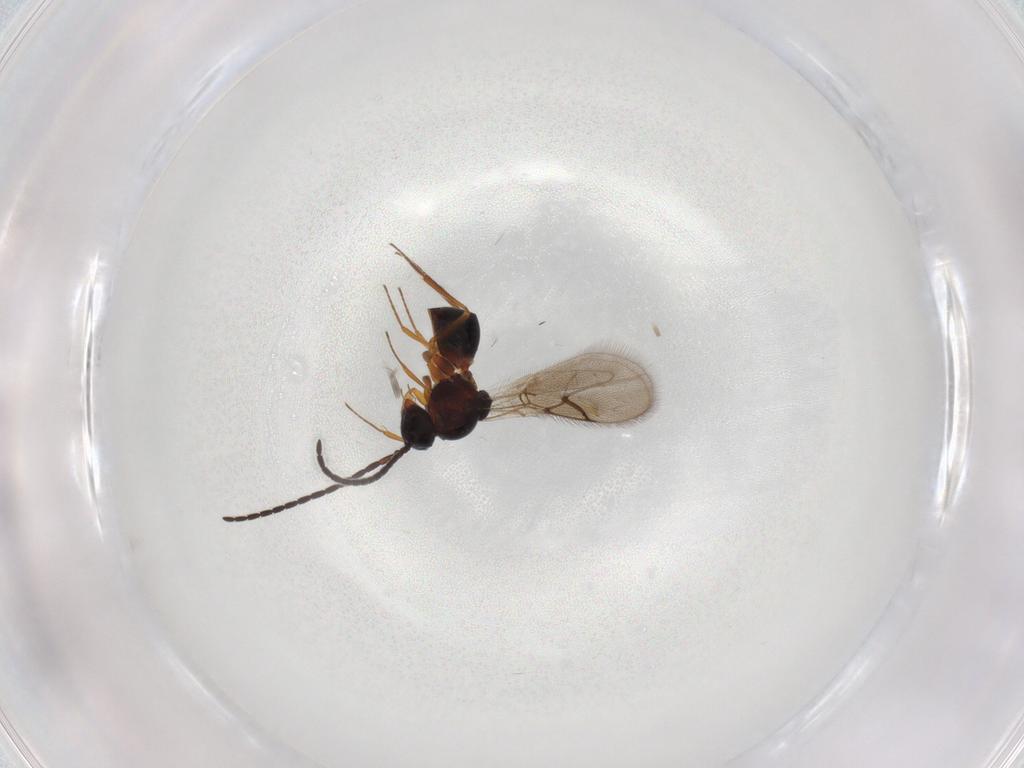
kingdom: Animalia
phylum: Arthropoda
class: Insecta
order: Hymenoptera
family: Figitidae
